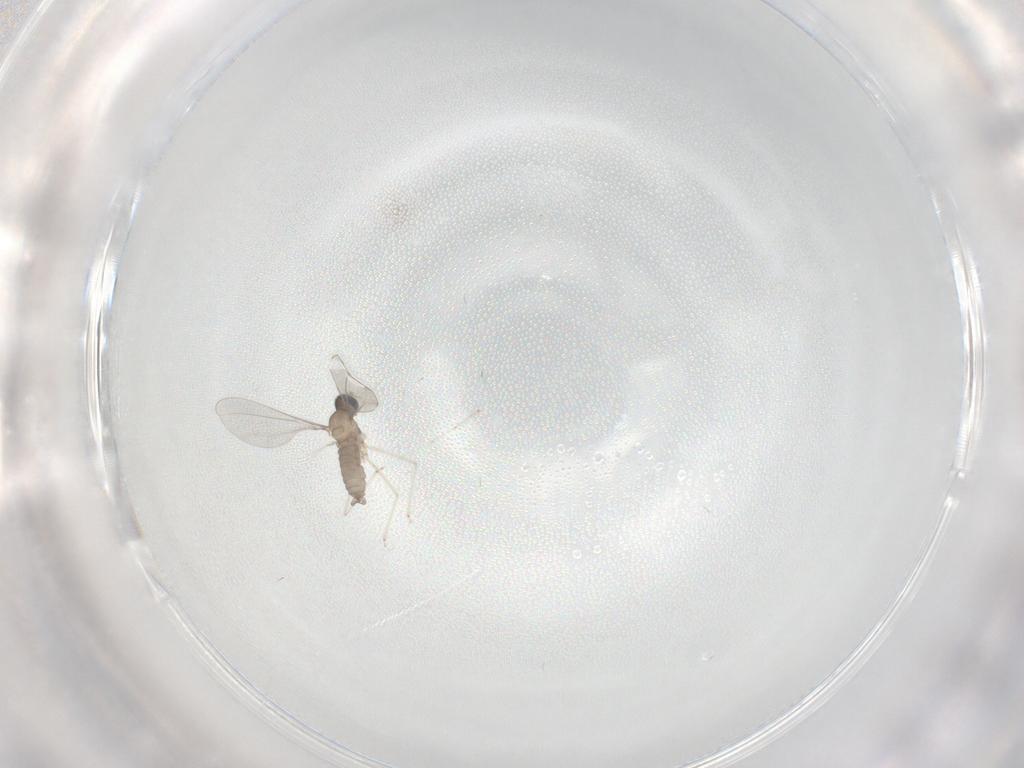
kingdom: Animalia
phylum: Arthropoda
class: Insecta
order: Diptera
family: Cecidomyiidae
